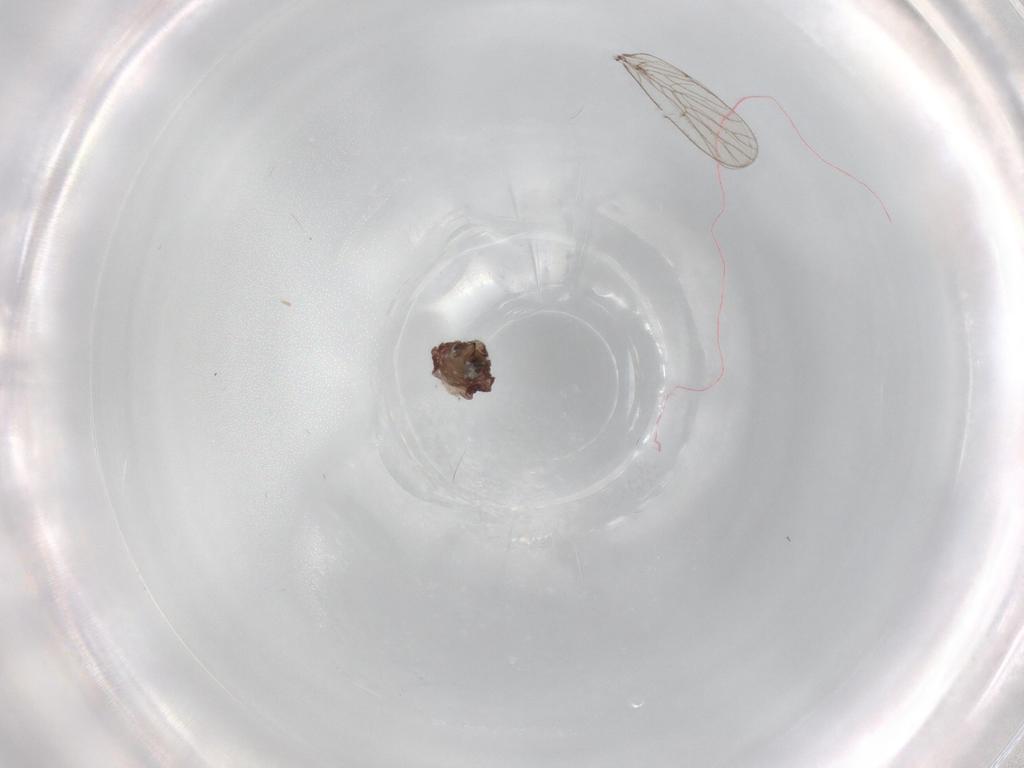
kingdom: Animalia
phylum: Arthropoda
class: Insecta
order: Psocodea
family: Psoquillidae
